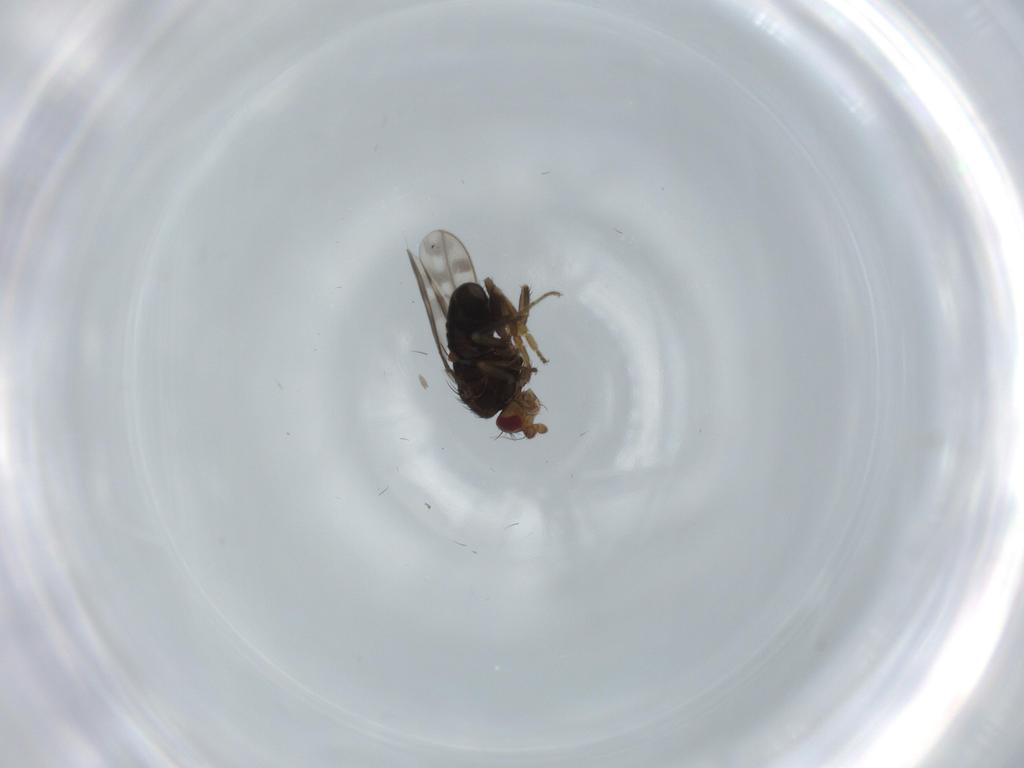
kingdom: Animalia
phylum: Arthropoda
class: Insecta
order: Diptera
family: Sphaeroceridae
